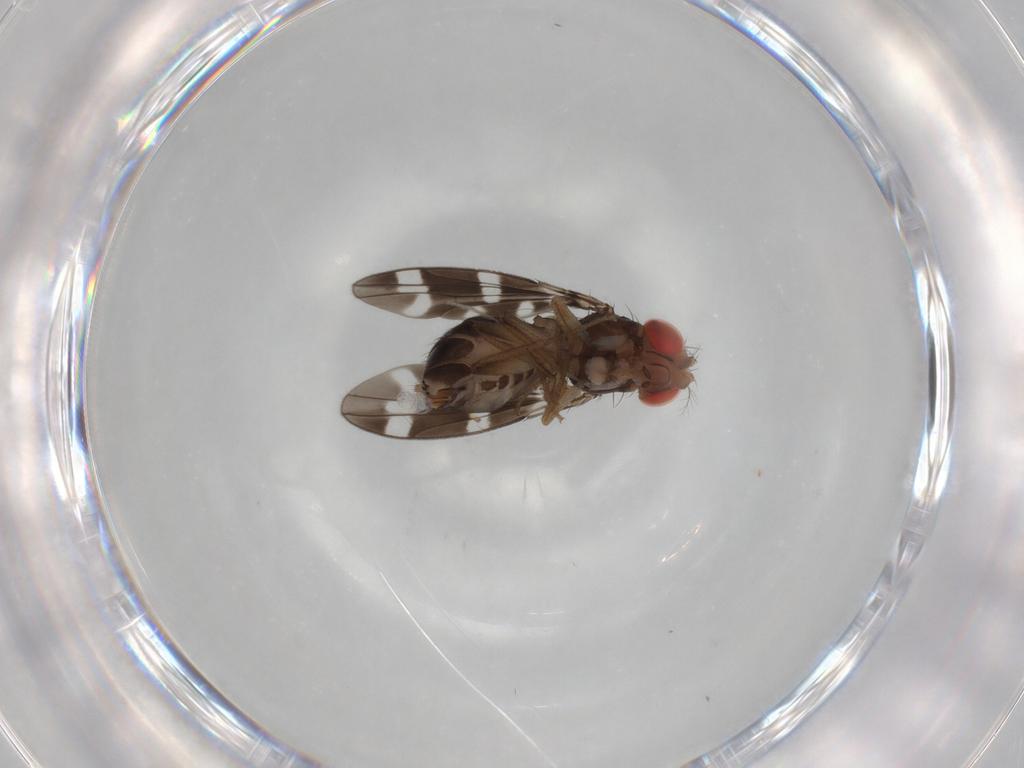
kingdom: Animalia
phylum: Arthropoda
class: Insecta
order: Diptera
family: Drosophilidae
